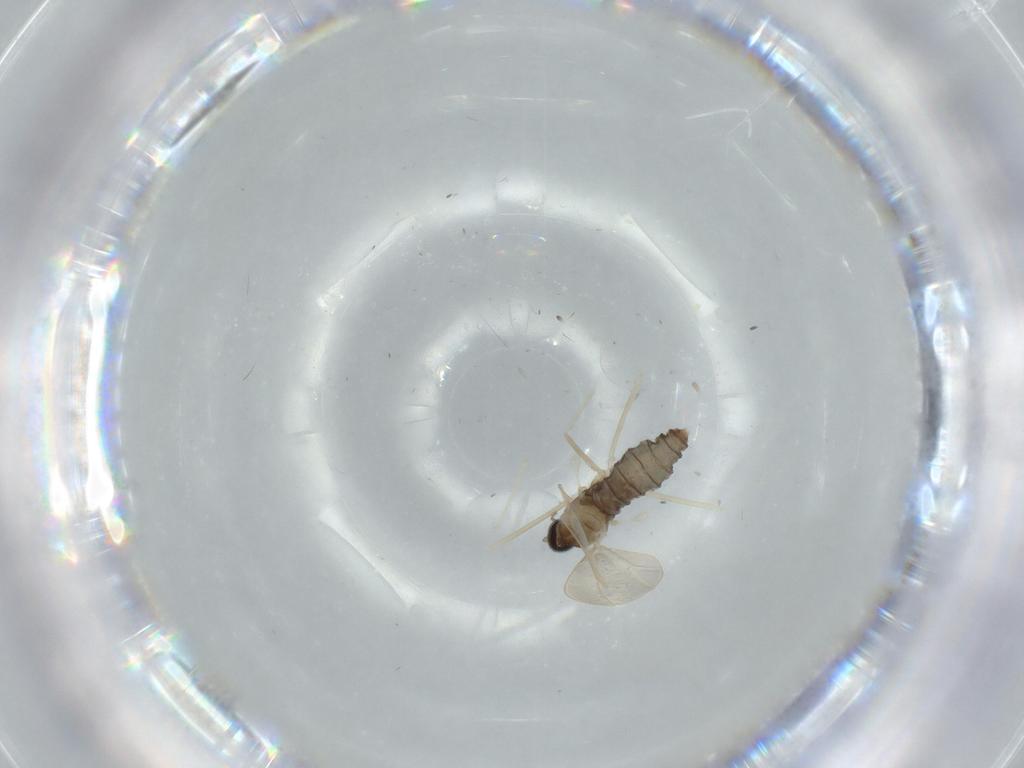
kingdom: Animalia
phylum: Arthropoda
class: Insecta
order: Diptera
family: Cecidomyiidae
